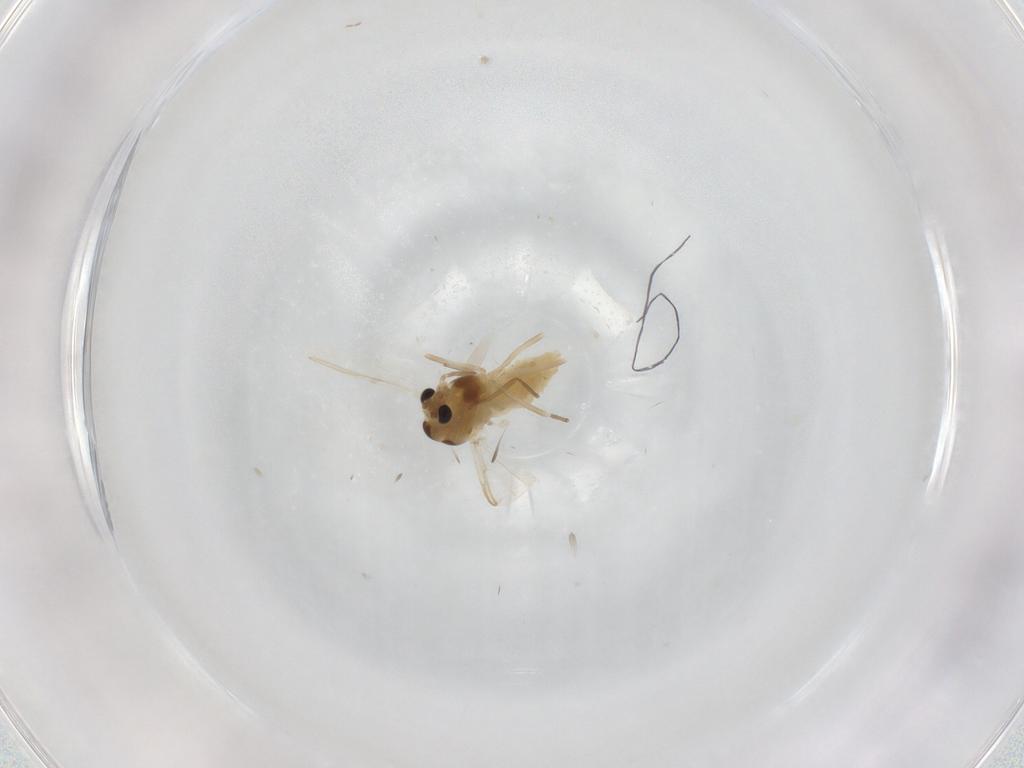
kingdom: Animalia
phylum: Arthropoda
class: Insecta
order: Diptera
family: Chironomidae
